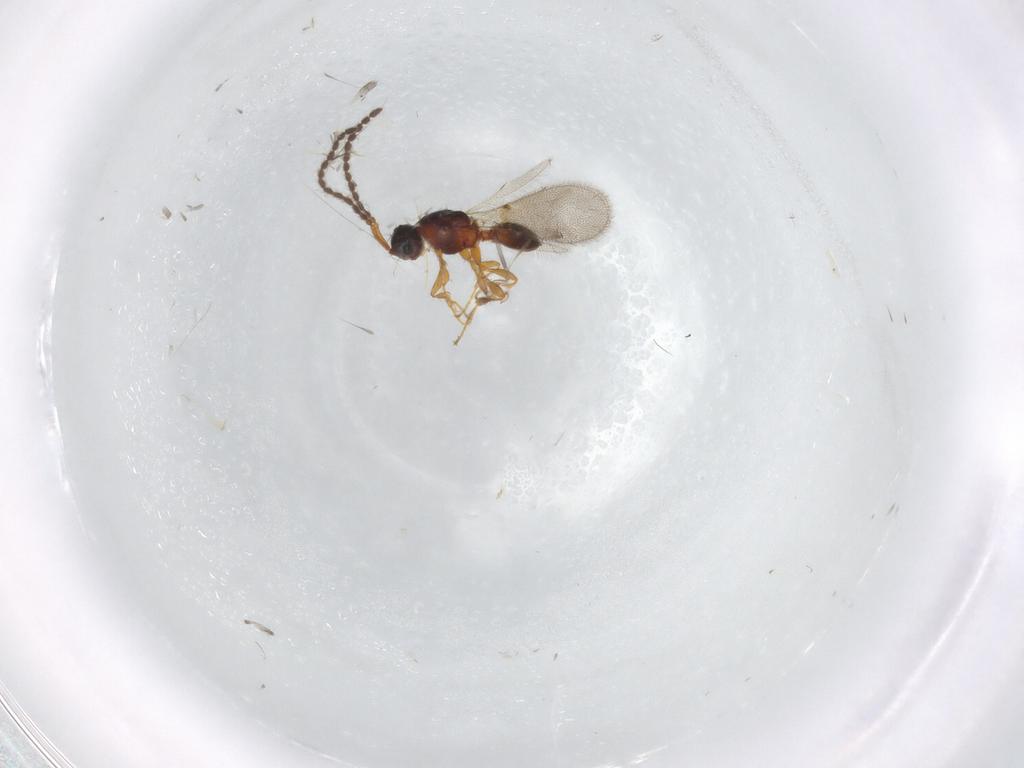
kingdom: Animalia
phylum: Arthropoda
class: Insecta
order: Hymenoptera
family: Diapriidae
